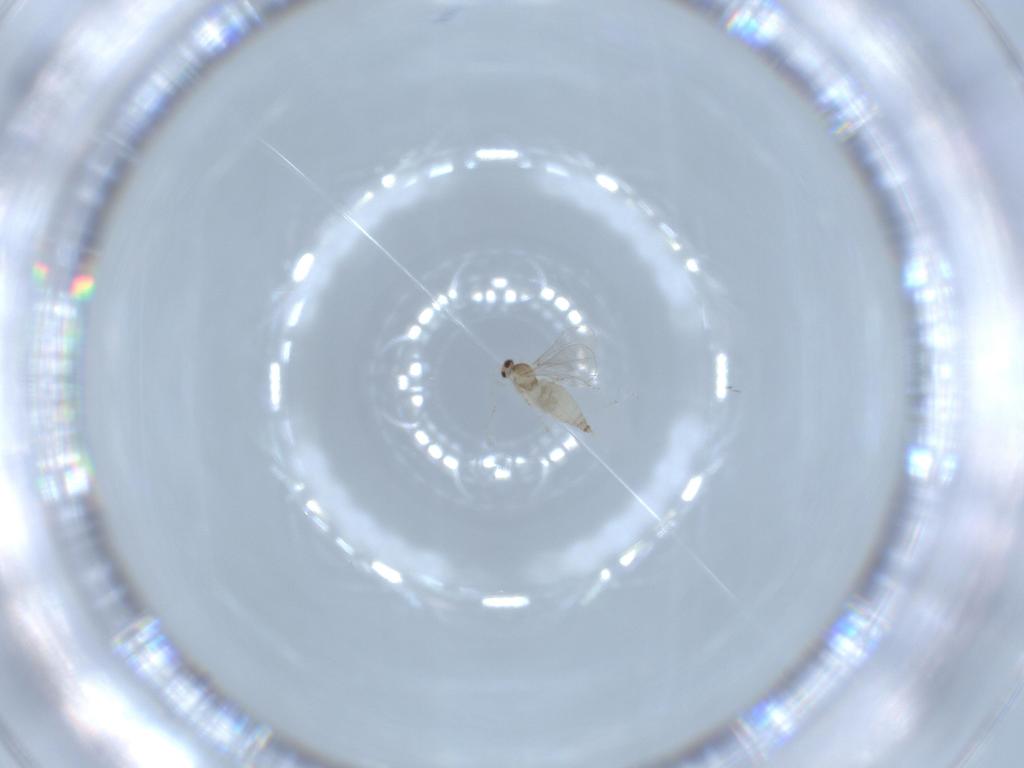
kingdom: Animalia
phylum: Arthropoda
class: Insecta
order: Diptera
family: Cecidomyiidae
